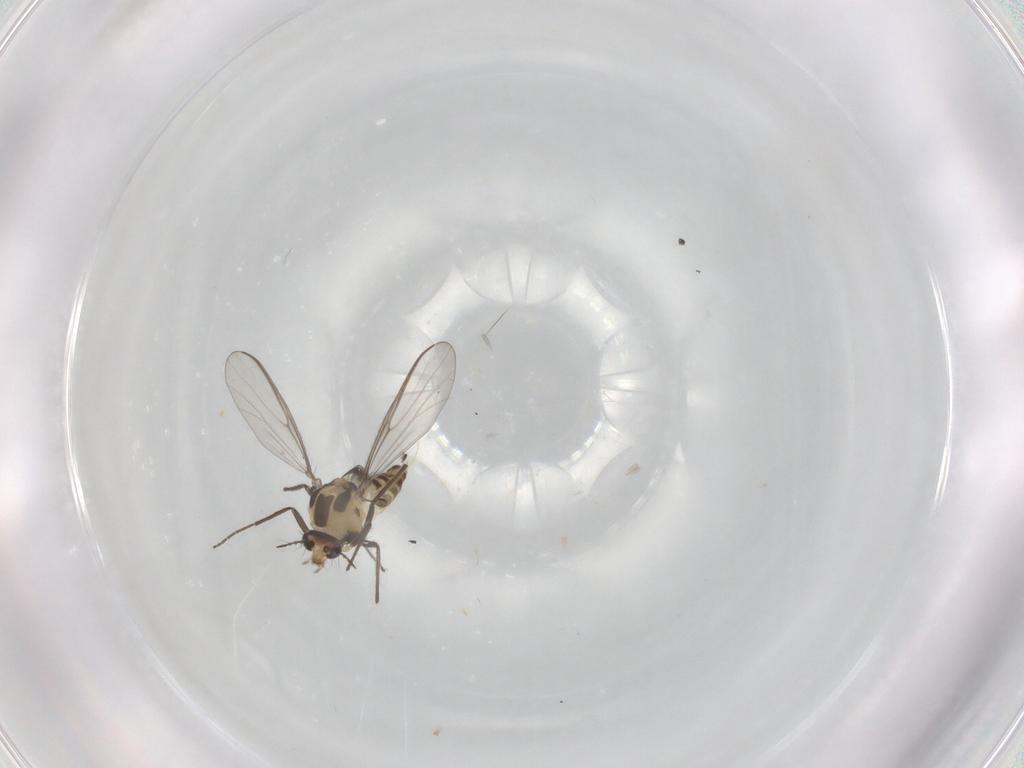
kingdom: Animalia
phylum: Arthropoda
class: Insecta
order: Diptera
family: Chironomidae
